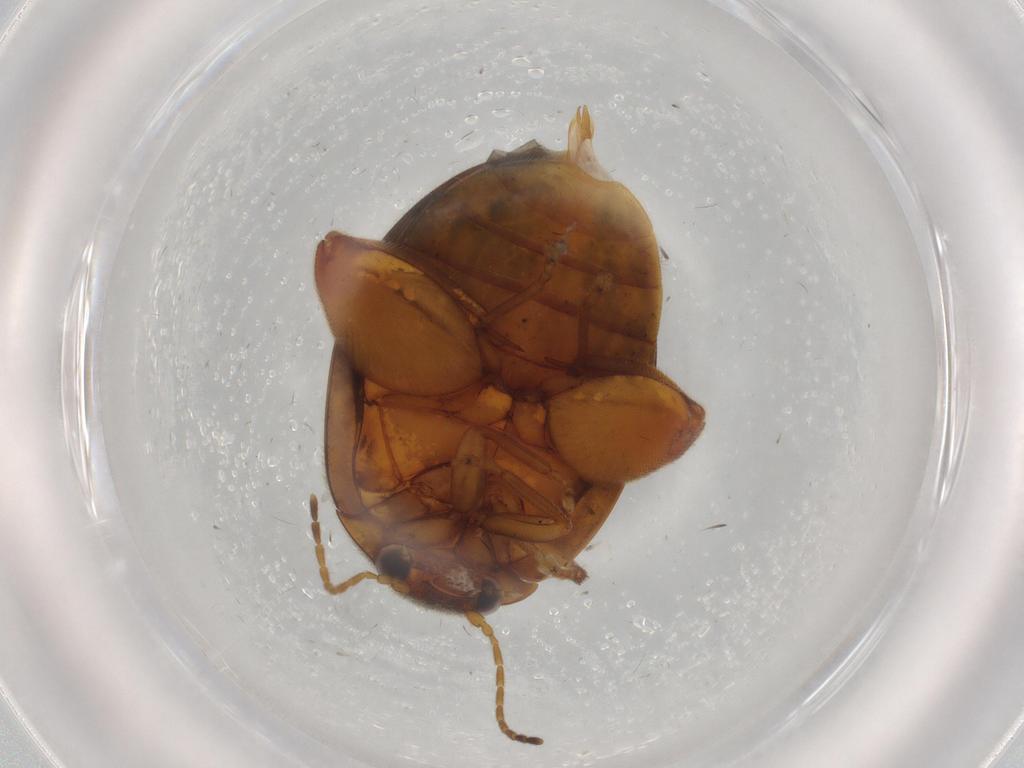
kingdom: Animalia
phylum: Arthropoda
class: Insecta
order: Coleoptera
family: Scirtidae
